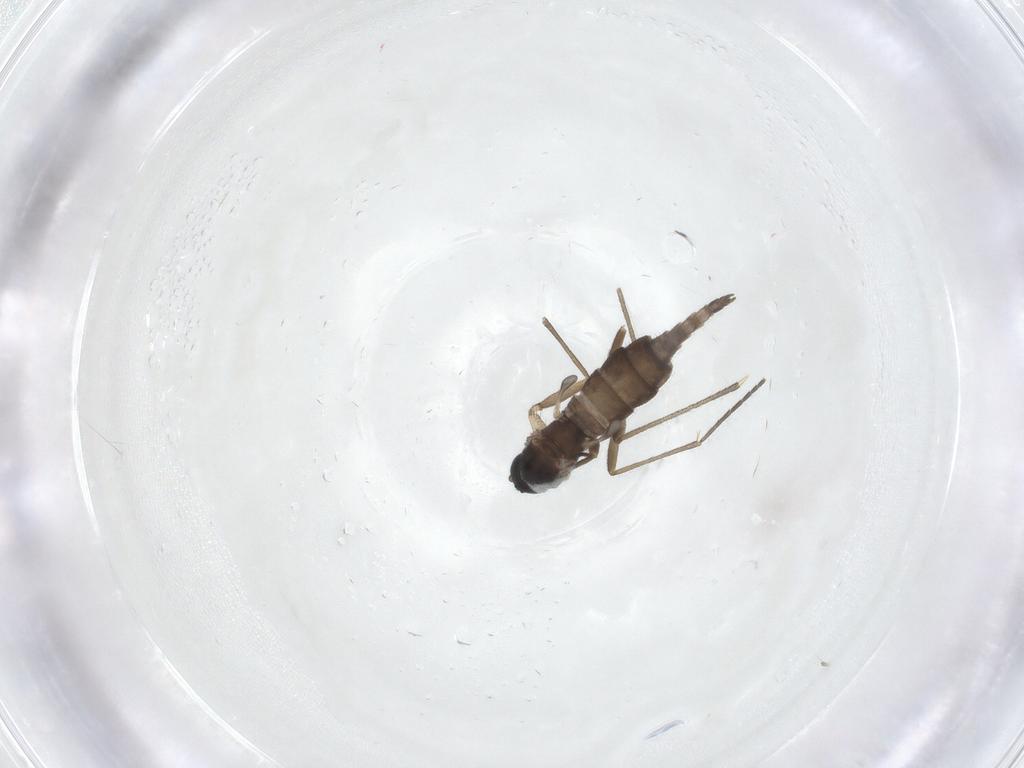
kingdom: Animalia
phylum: Arthropoda
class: Insecta
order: Diptera
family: Sciaridae
